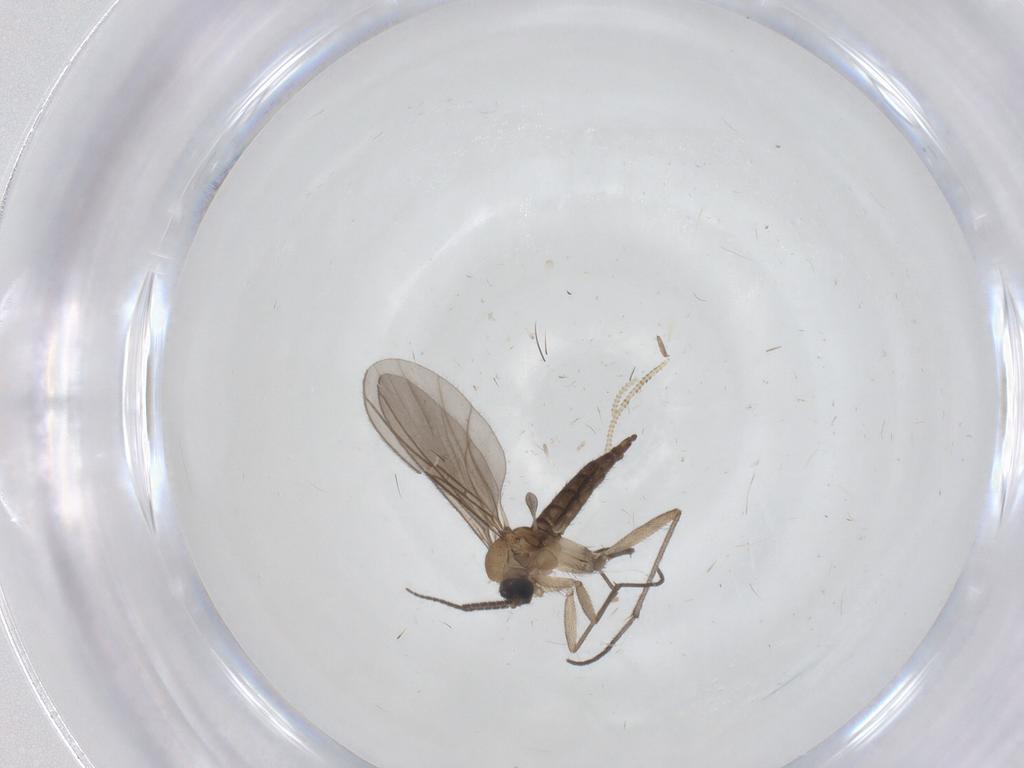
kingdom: Animalia
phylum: Arthropoda
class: Insecta
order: Diptera
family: Sciaridae
